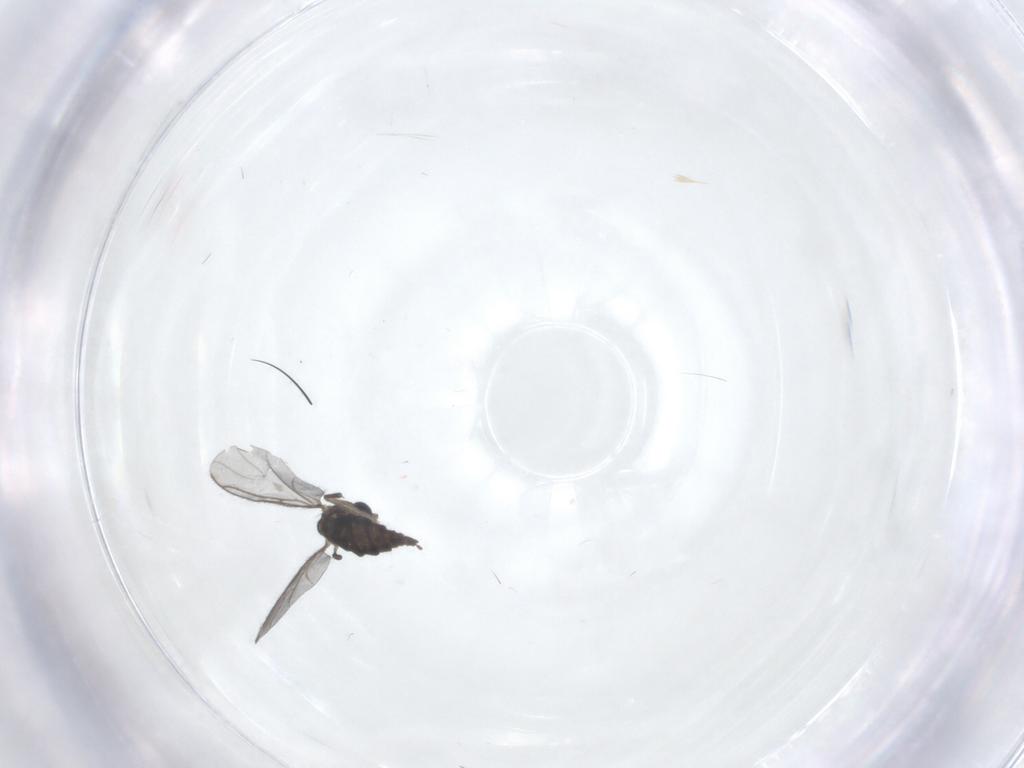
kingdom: Animalia
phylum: Arthropoda
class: Insecta
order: Diptera
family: Sciaridae
